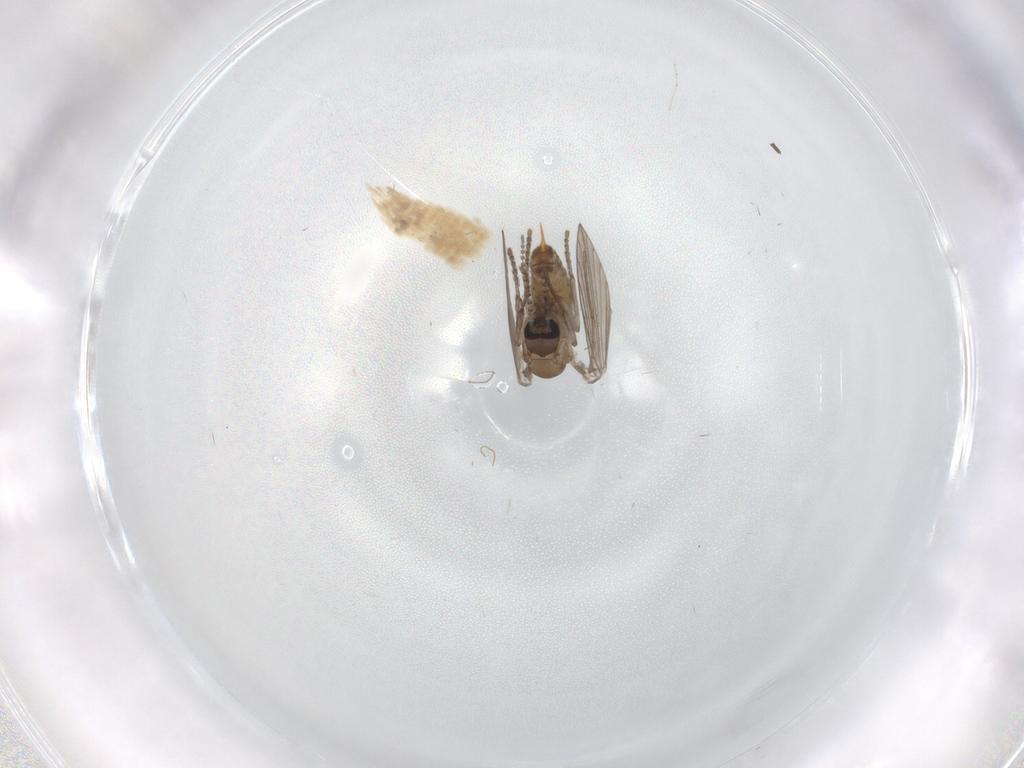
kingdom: Animalia
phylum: Arthropoda
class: Insecta
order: Diptera
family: Psychodidae
